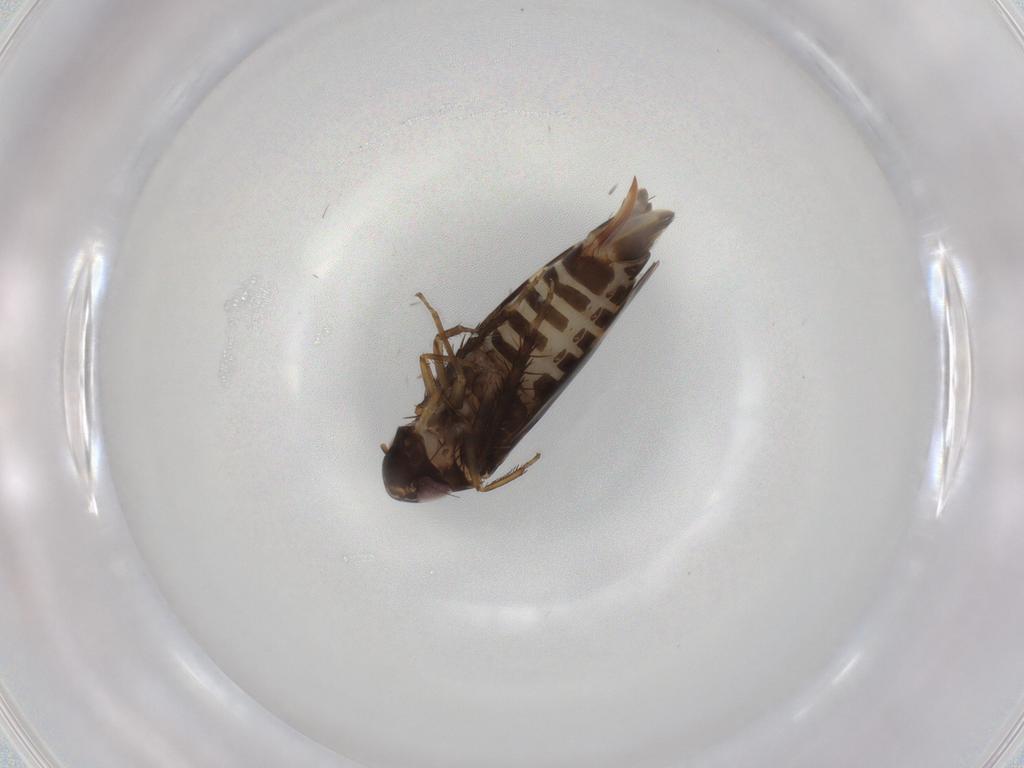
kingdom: Animalia
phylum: Arthropoda
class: Insecta
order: Hemiptera
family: Cicadellidae
